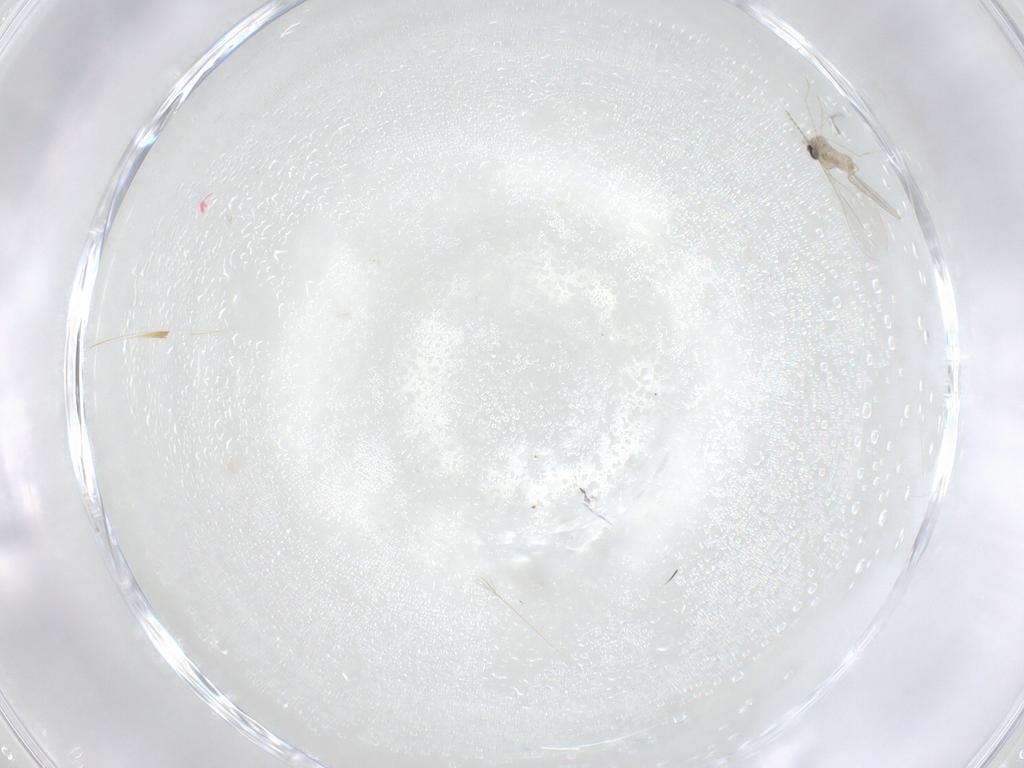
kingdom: Animalia
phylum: Arthropoda
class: Insecta
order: Diptera
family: Cecidomyiidae
